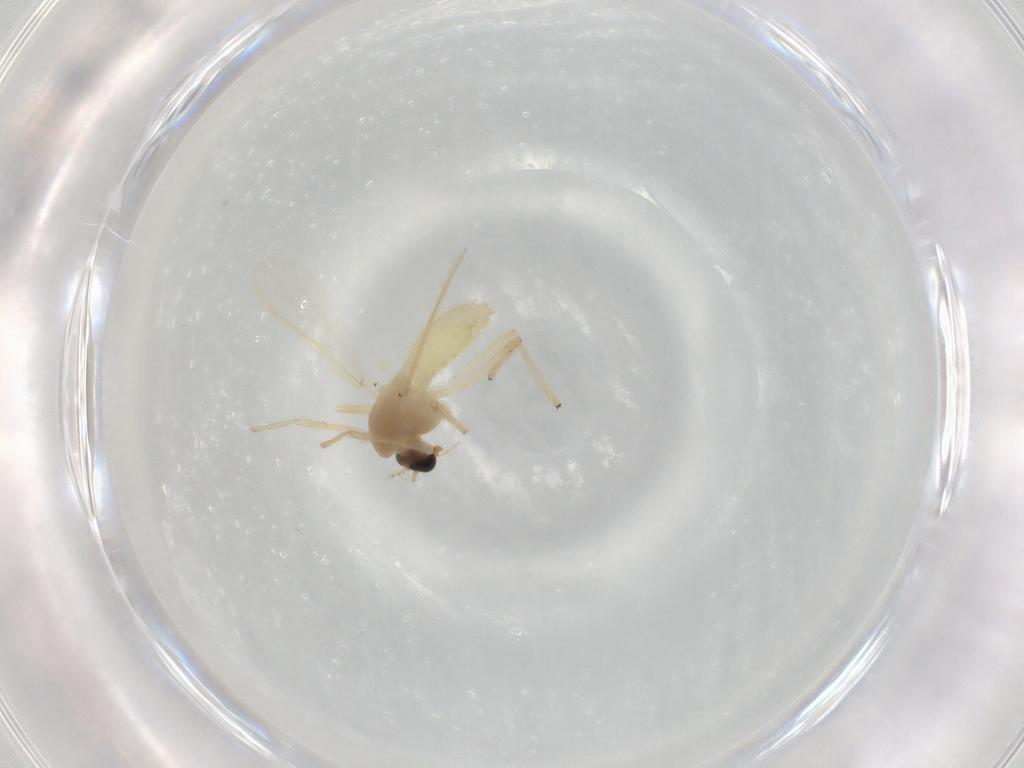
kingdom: Animalia
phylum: Arthropoda
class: Insecta
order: Diptera
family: Chironomidae
